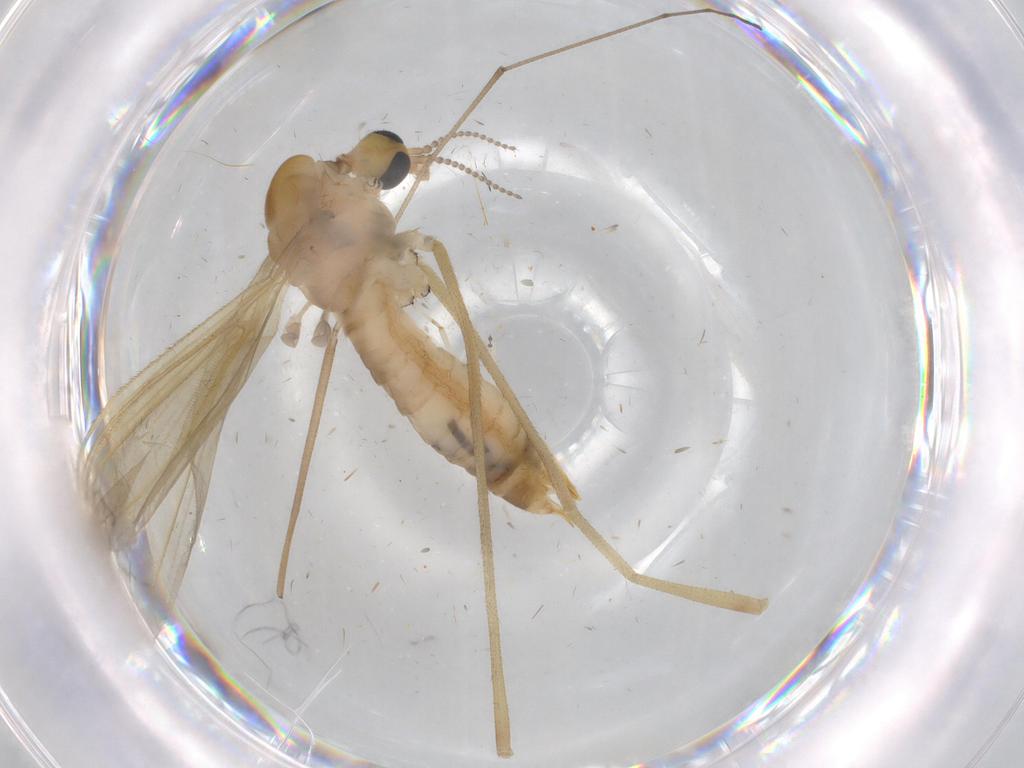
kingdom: Animalia
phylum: Arthropoda
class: Insecta
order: Diptera
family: Limoniidae
